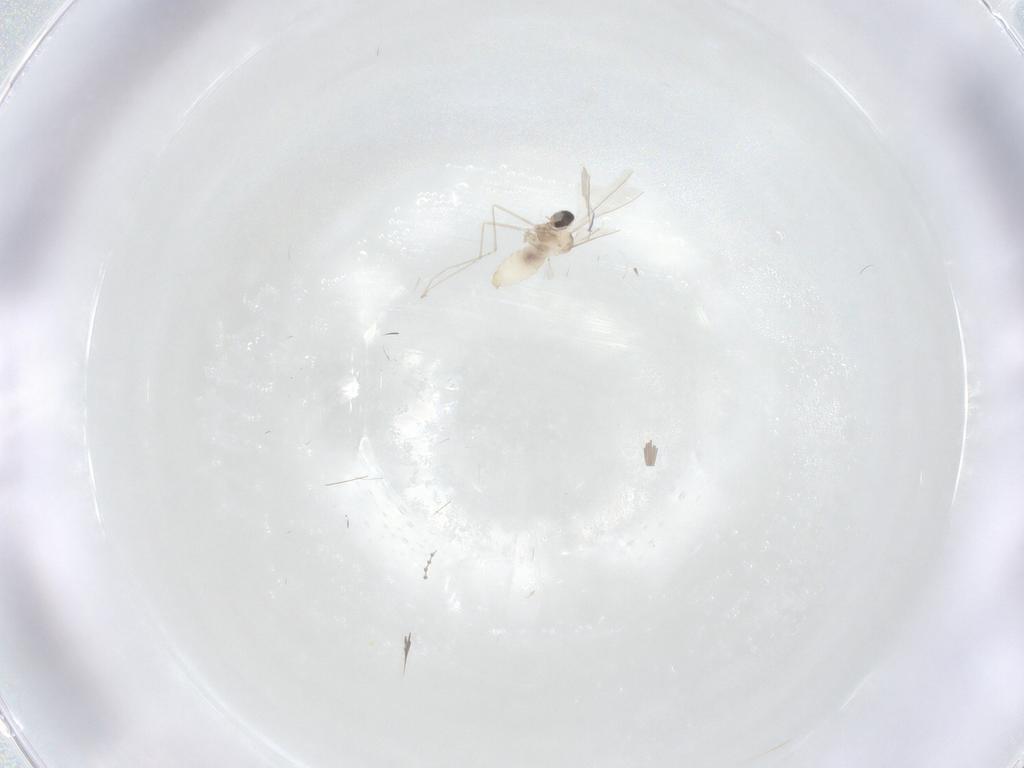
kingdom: Animalia
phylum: Arthropoda
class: Insecta
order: Diptera
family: Cecidomyiidae
